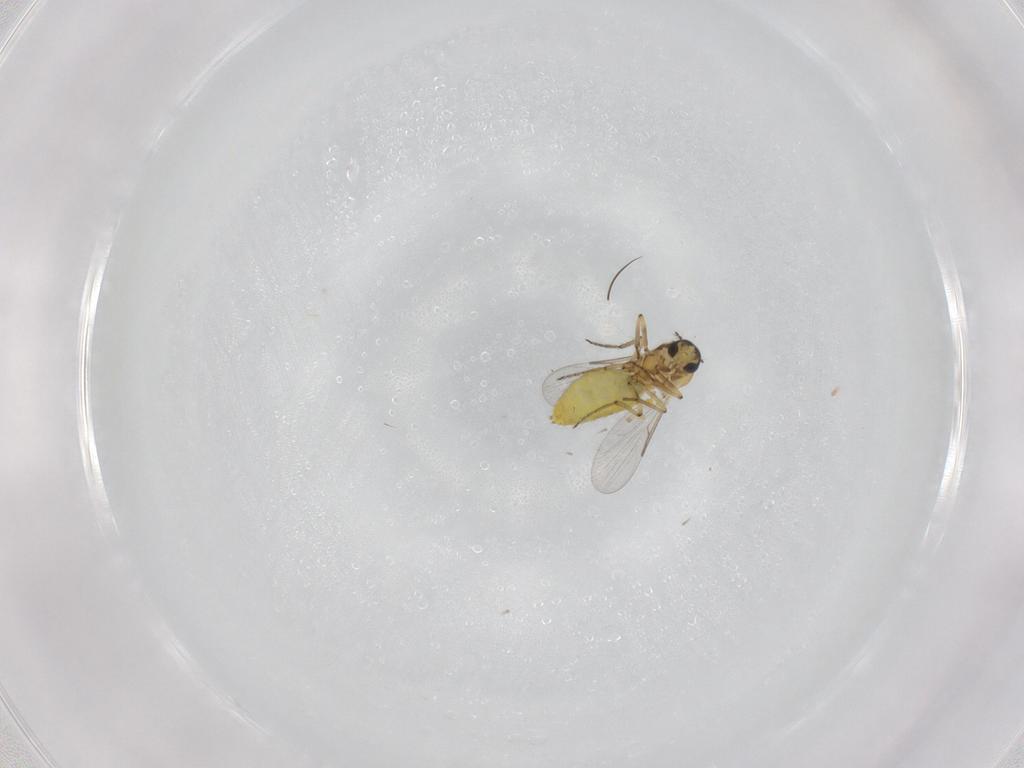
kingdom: Animalia
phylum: Arthropoda
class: Insecta
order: Diptera
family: Ceratopogonidae
